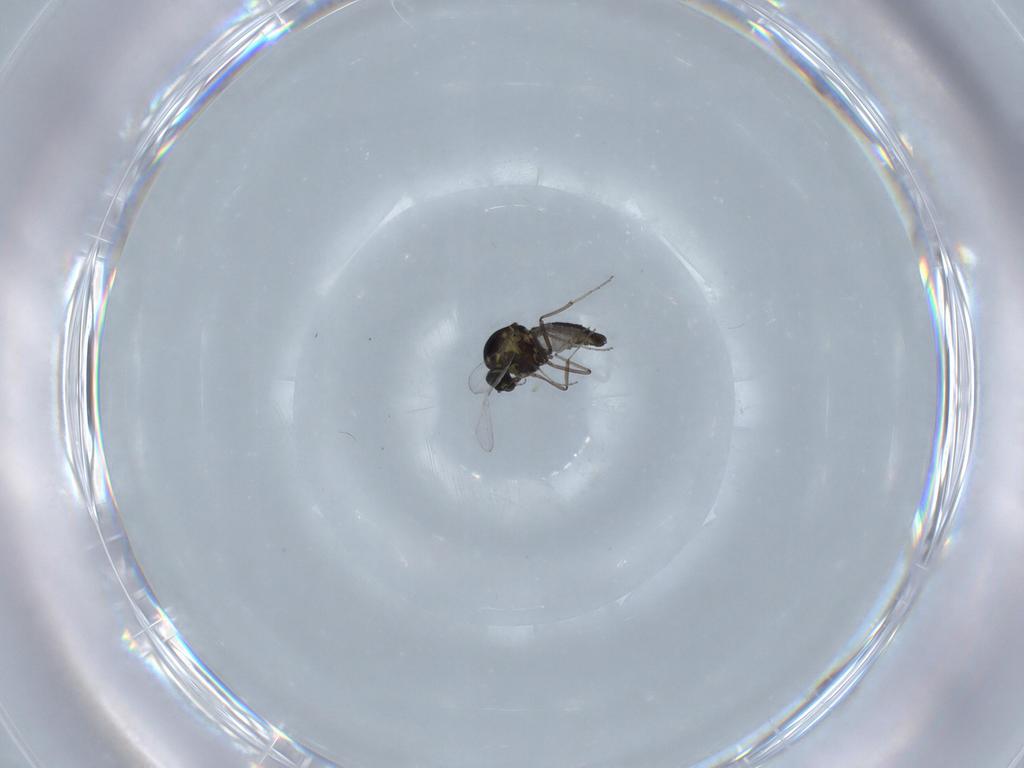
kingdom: Animalia
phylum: Arthropoda
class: Insecta
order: Diptera
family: Ceratopogonidae
